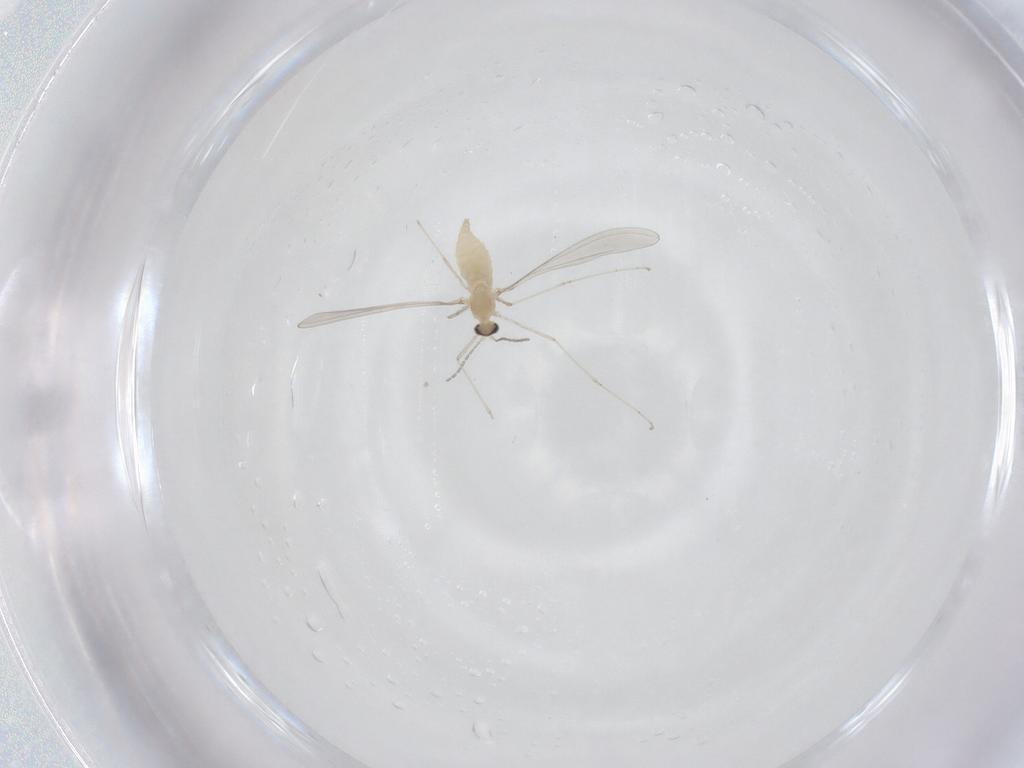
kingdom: Animalia
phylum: Arthropoda
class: Insecta
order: Diptera
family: Cecidomyiidae
